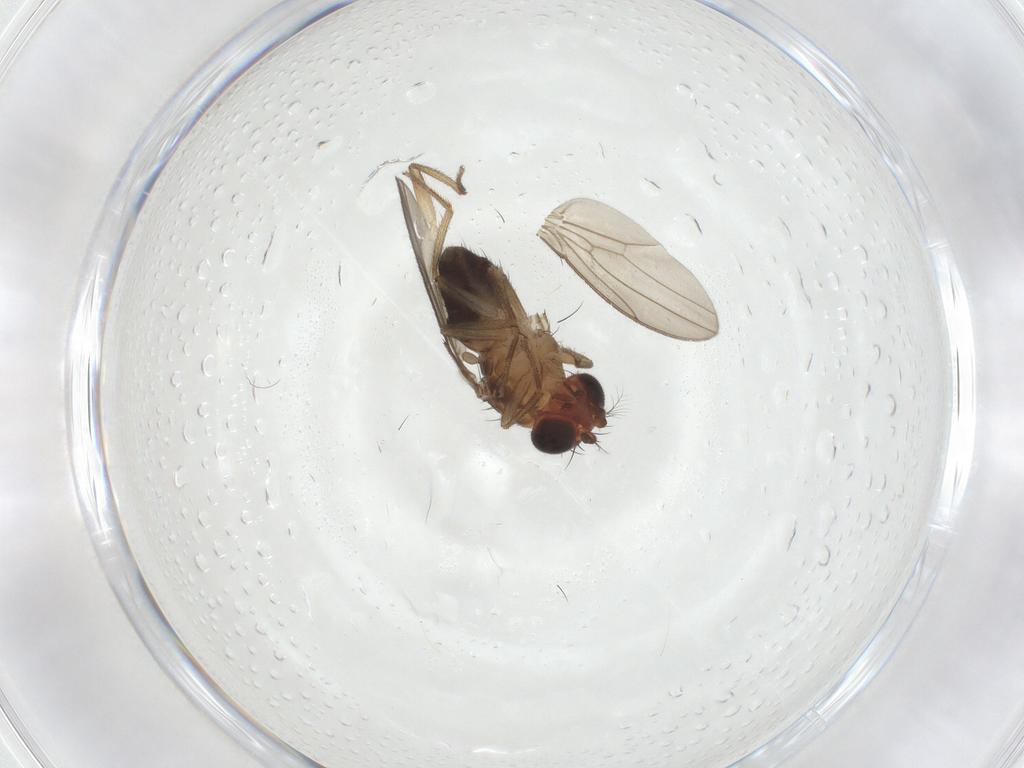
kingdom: Animalia
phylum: Arthropoda
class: Insecta
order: Diptera
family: Drosophilidae
